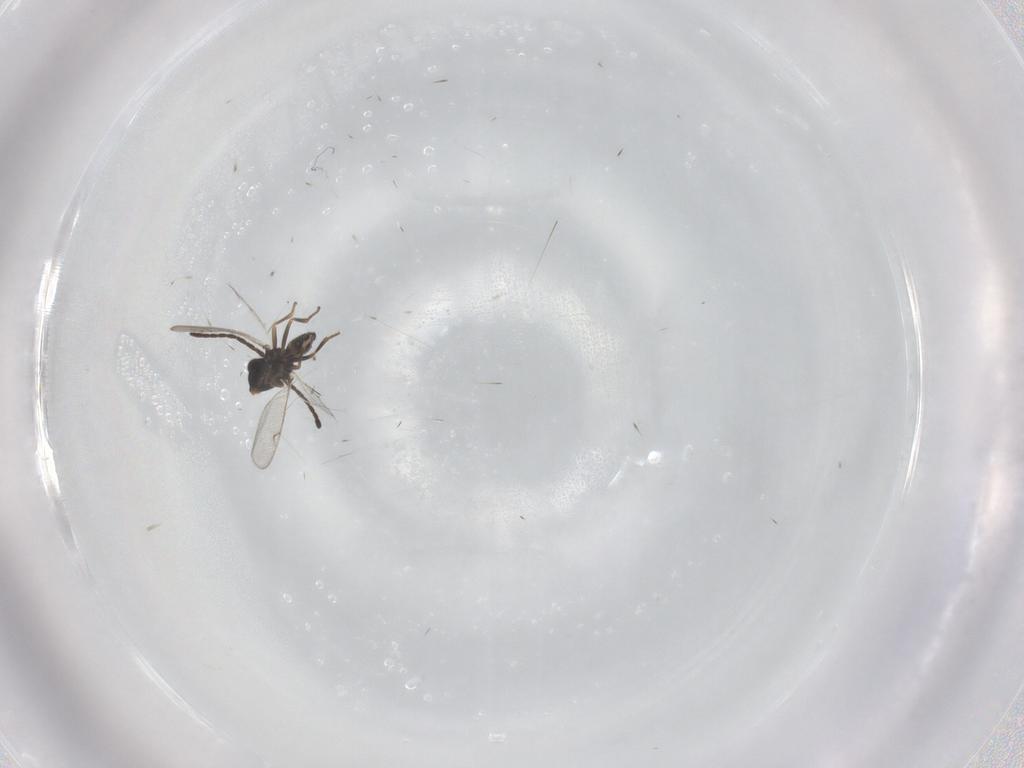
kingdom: Animalia
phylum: Arthropoda
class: Insecta
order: Hymenoptera
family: Eupelmidae
